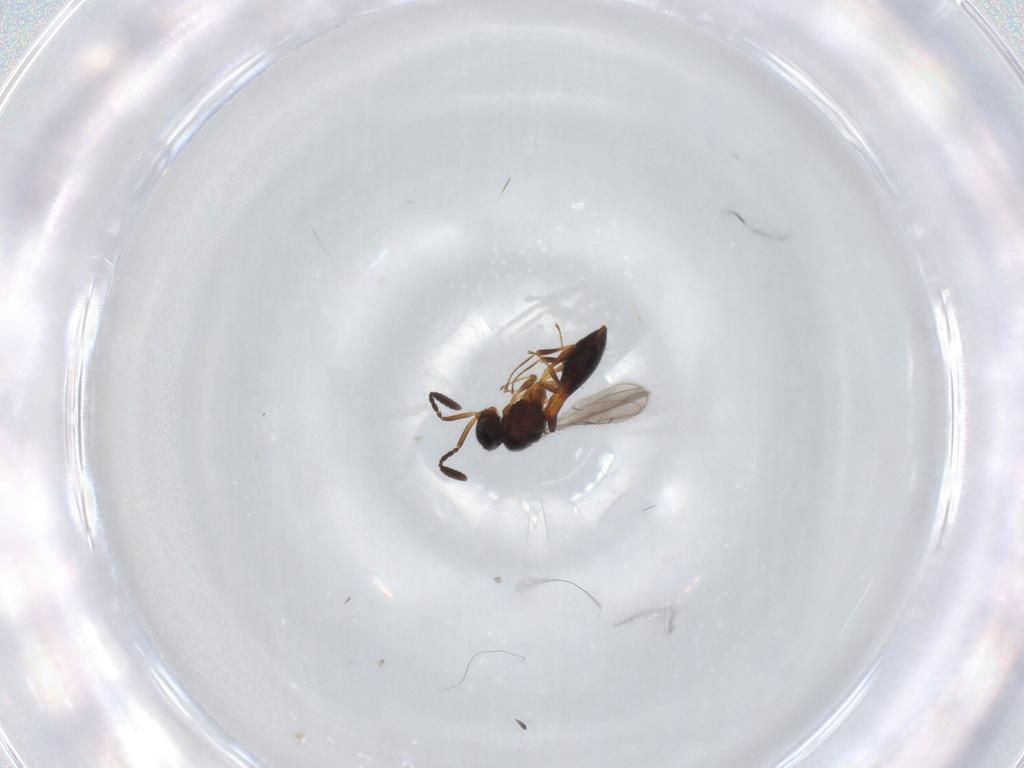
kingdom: Animalia
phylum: Arthropoda
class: Insecta
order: Hymenoptera
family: Scelionidae
